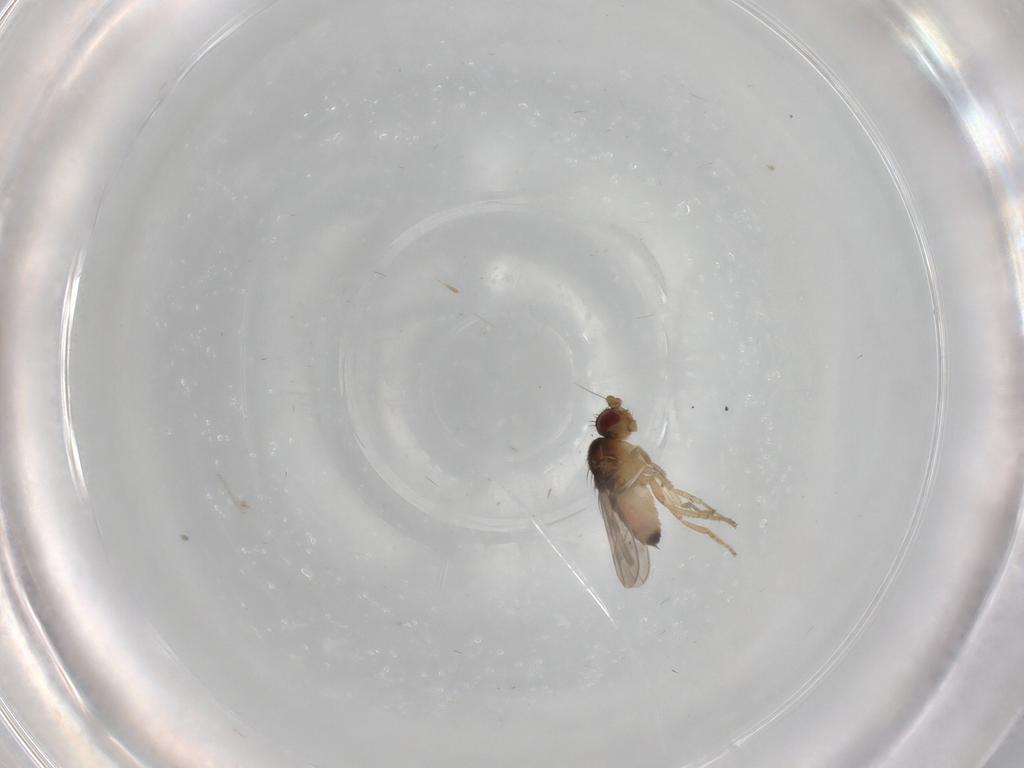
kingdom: Animalia
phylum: Arthropoda
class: Insecta
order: Diptera
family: Sphaeroceridae
